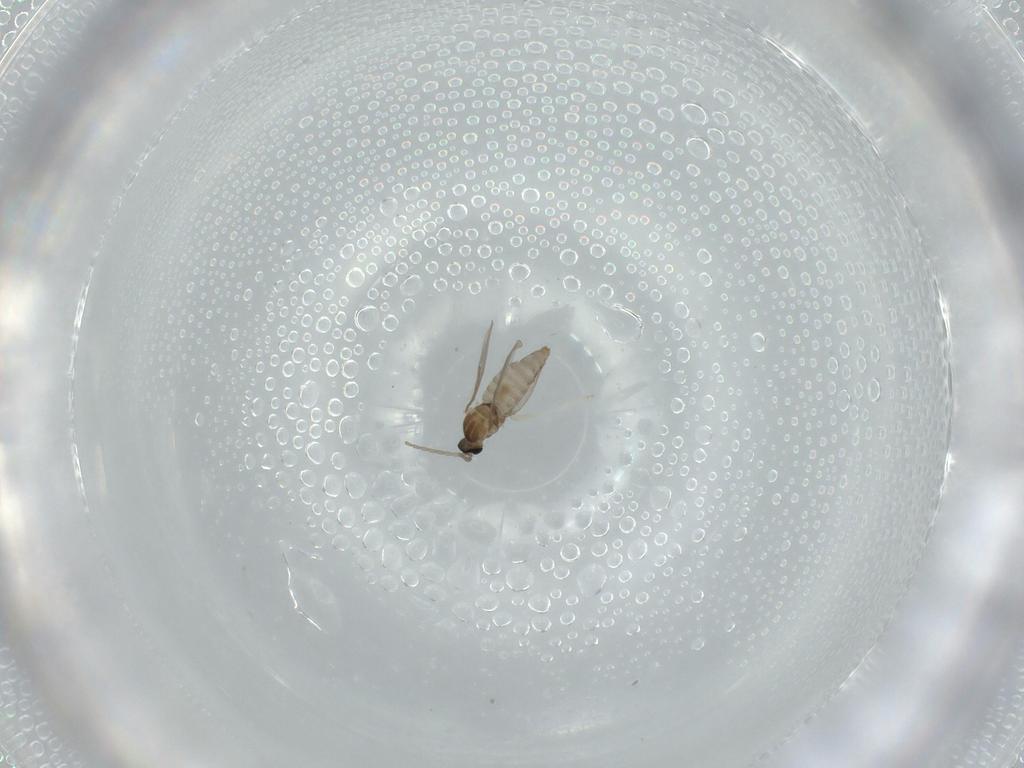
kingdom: Animalia
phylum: Arthropoda
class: Insecta
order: Diptera
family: Cecidomyiidae
